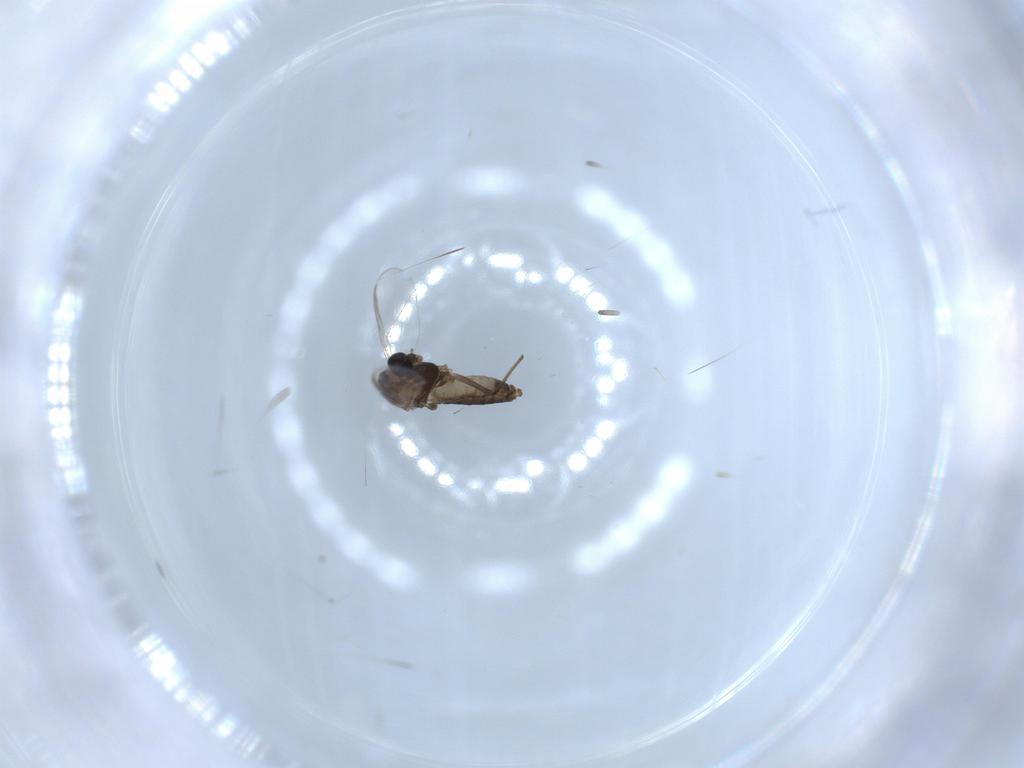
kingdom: Animalia
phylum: Arthropoda
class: Insecta
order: Diptera
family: Chironomidae
